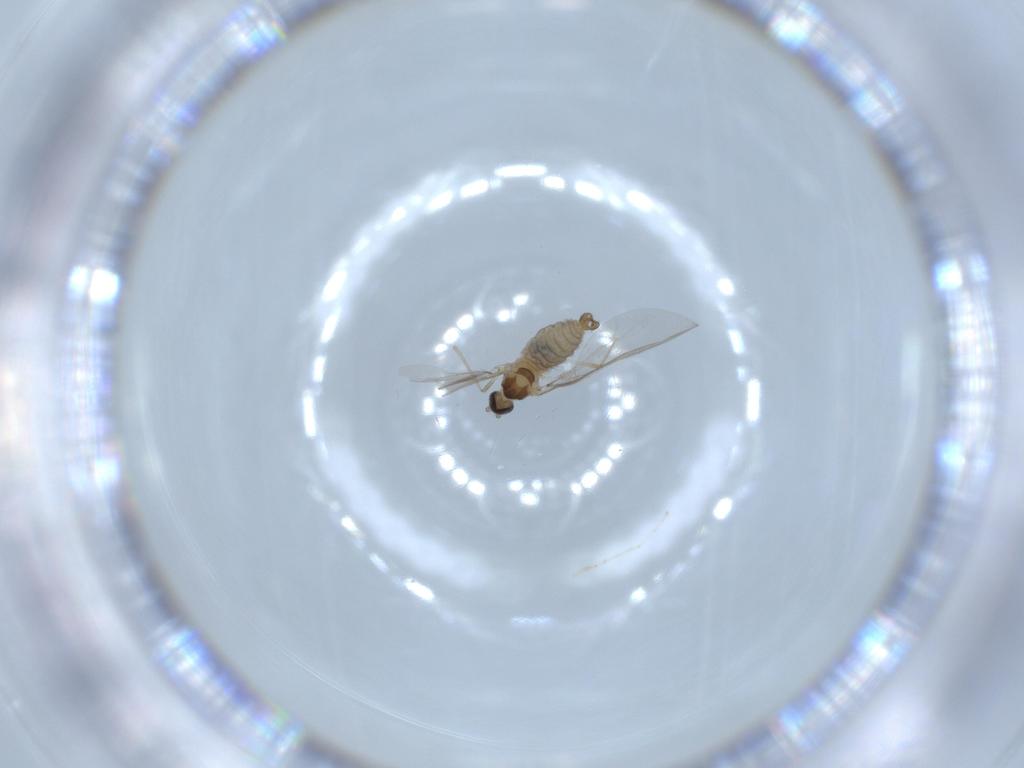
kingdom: Animalia
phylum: Arthropoda
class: Insecta
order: Diptera
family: Cecidomyiidae
